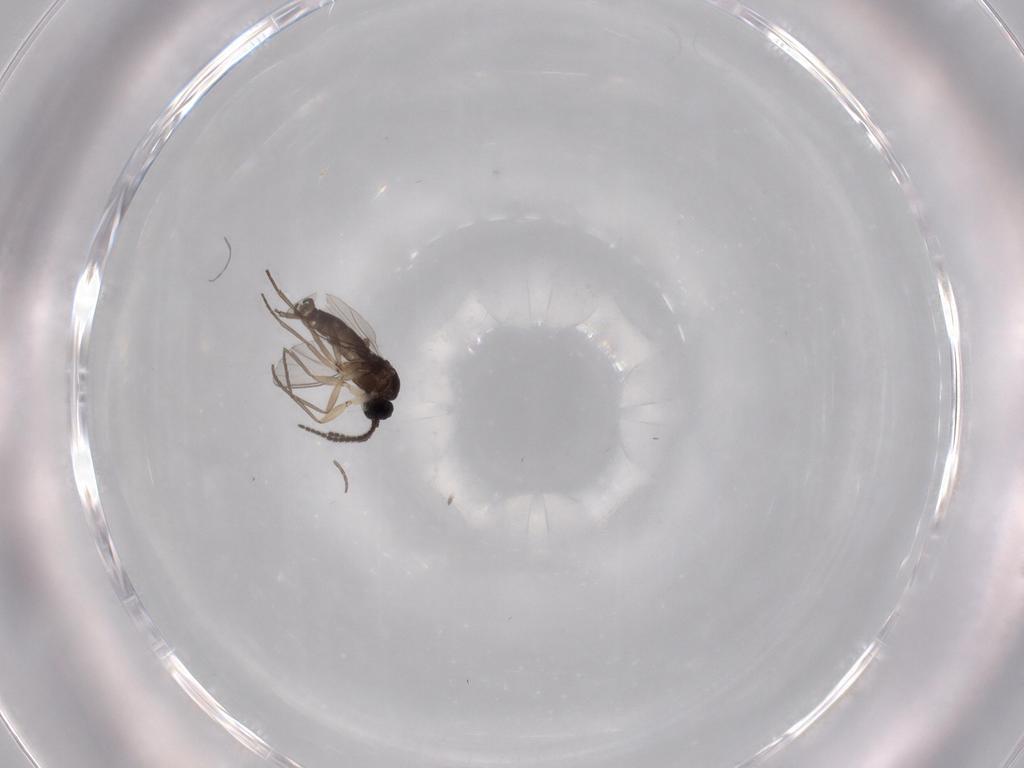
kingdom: Animalia
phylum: Arthropoda
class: Insecta
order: Diptera
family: Sciaridae
